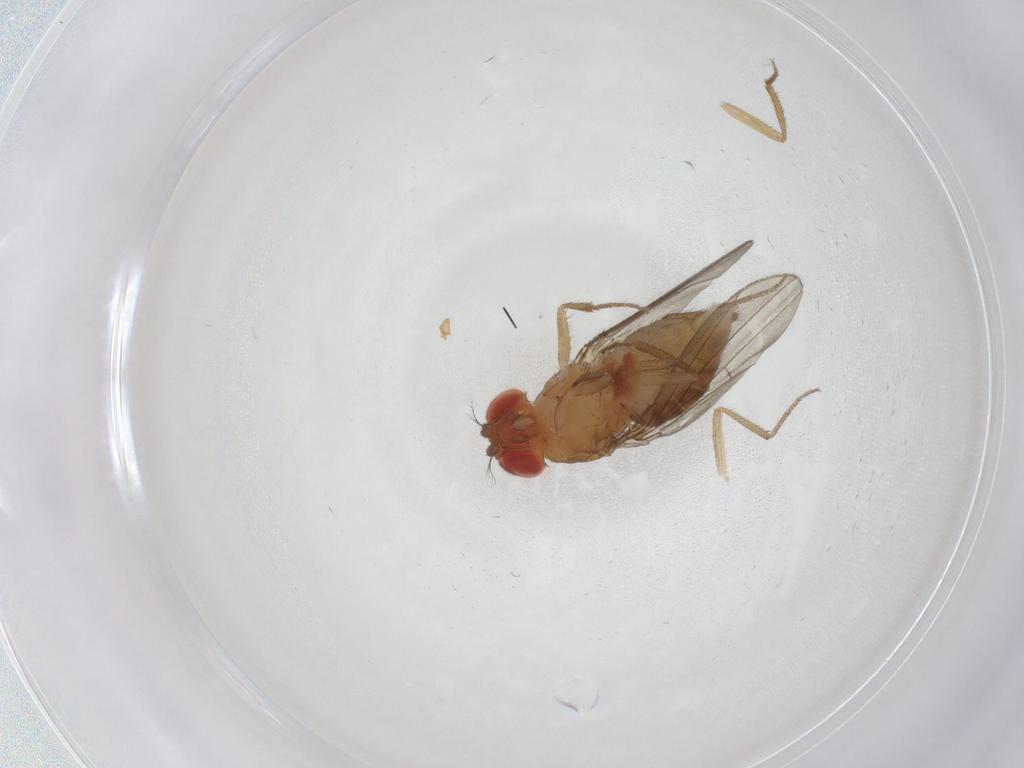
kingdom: Animalia
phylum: Arthropoda
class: Insecta
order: Diptera
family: Drosophilidae
